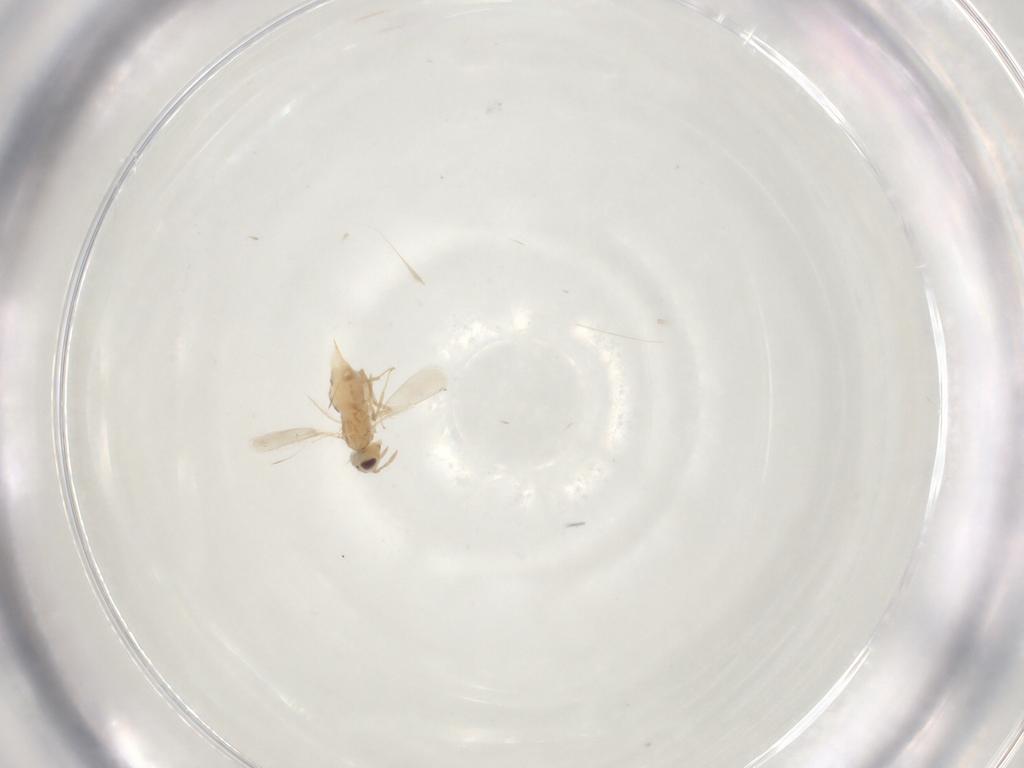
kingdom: Animalia
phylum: Arthropoda
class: Insecta
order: Hymenoptera
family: Aphelinidae
